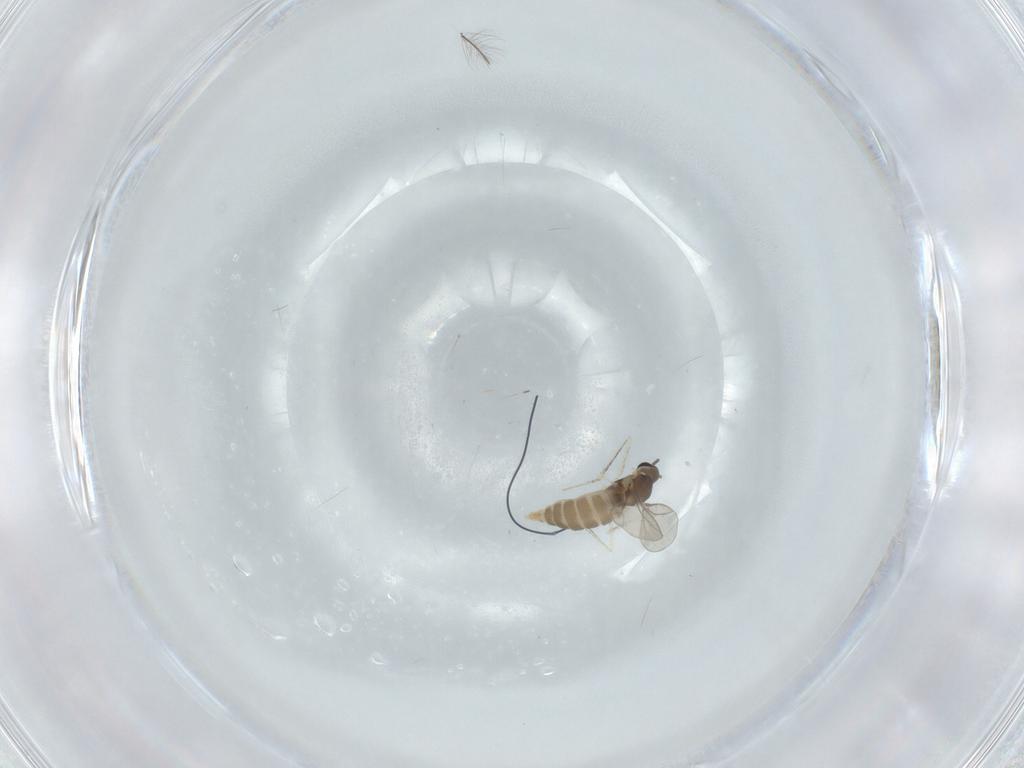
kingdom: Animalia
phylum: Arthropoda
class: Insecta
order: Diptera
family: Cecidomyiidae
